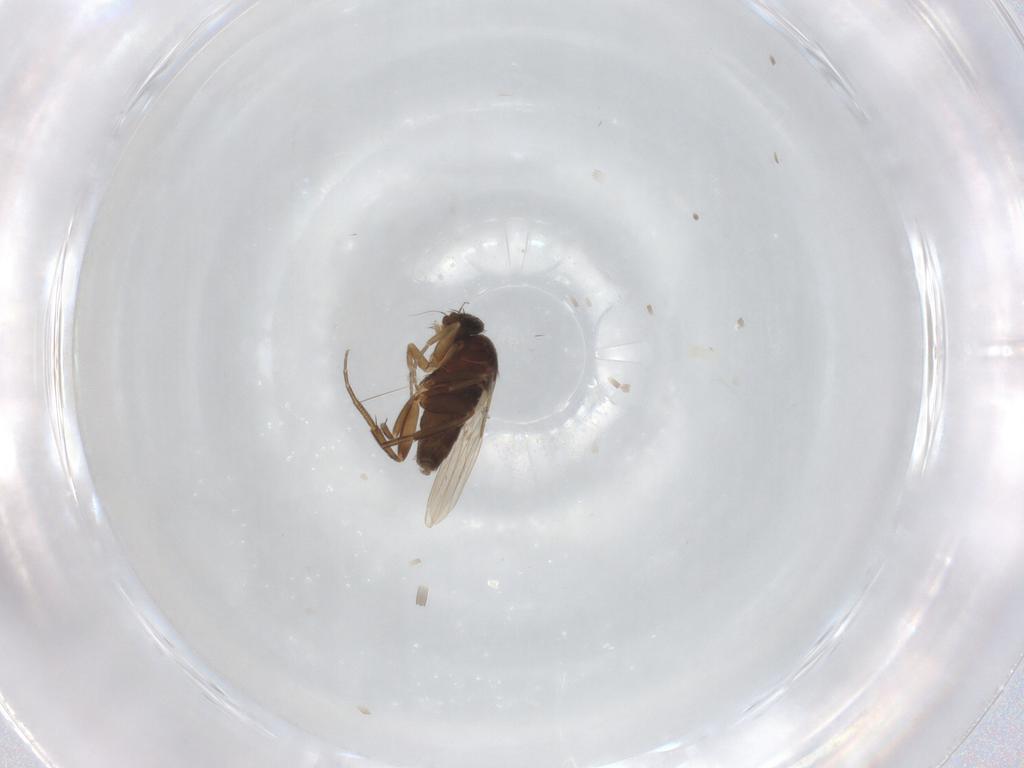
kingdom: Animalia
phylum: Arthropoda
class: Insecta
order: Diptera
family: Phoridae
